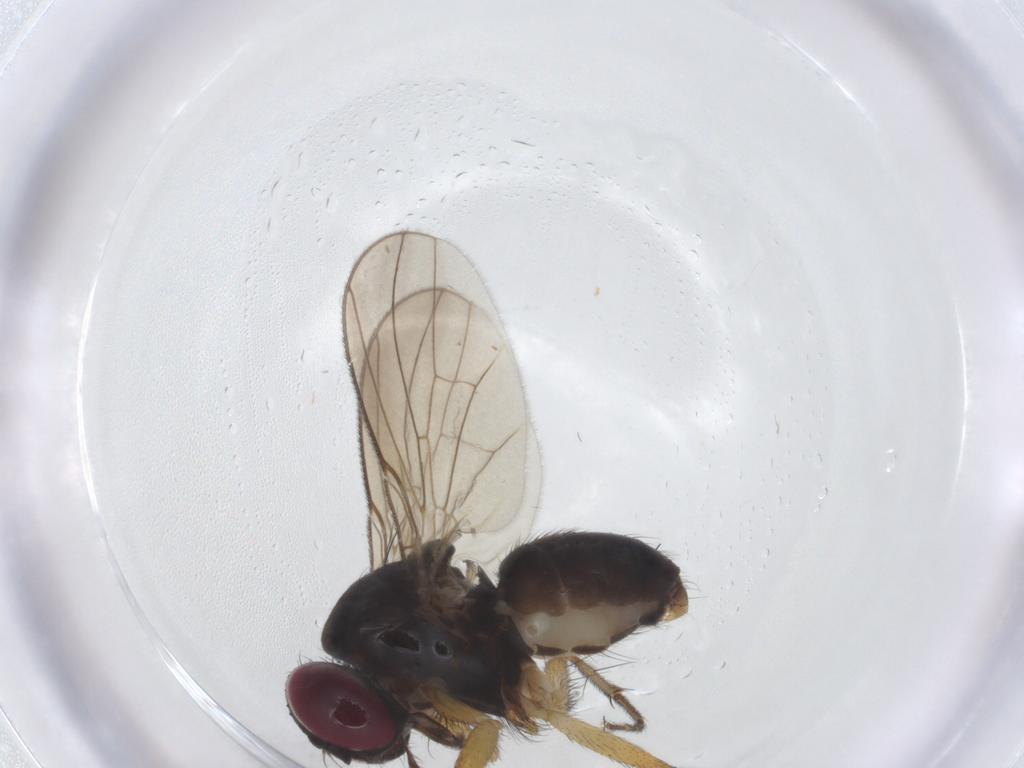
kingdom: Animalia
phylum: Arthropoda
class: Insecta
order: Diptera
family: Anthomyiidae
